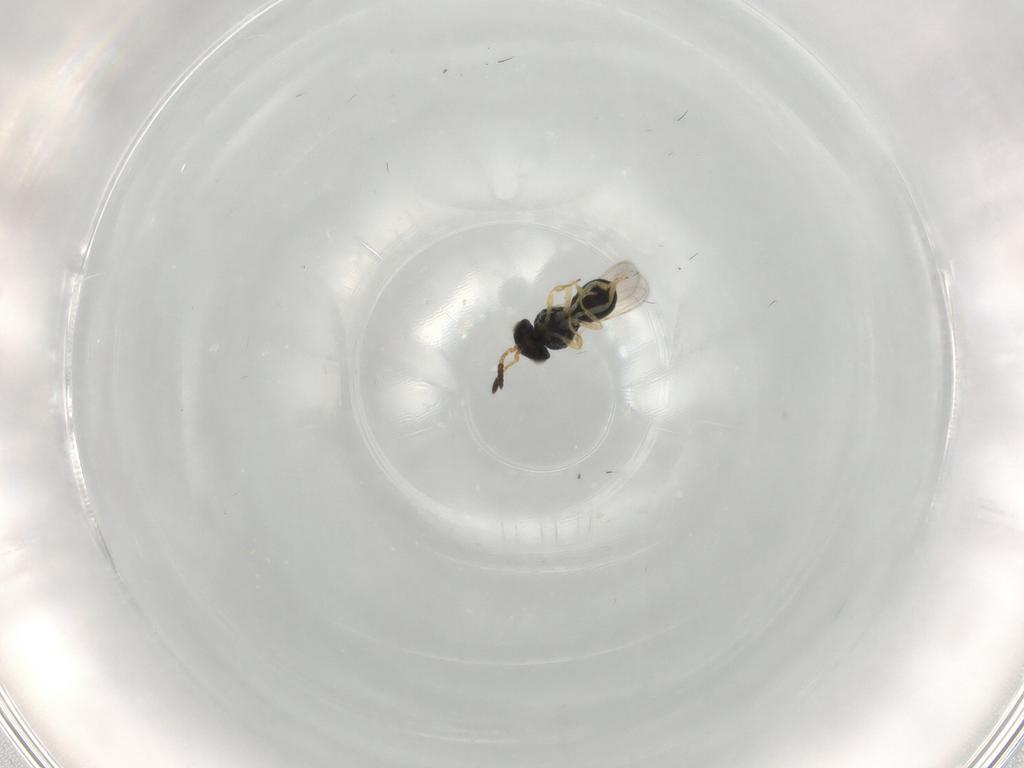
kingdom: Animalia
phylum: Arthropoda
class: Insecta
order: Hymenoptera
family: Scelionidae
